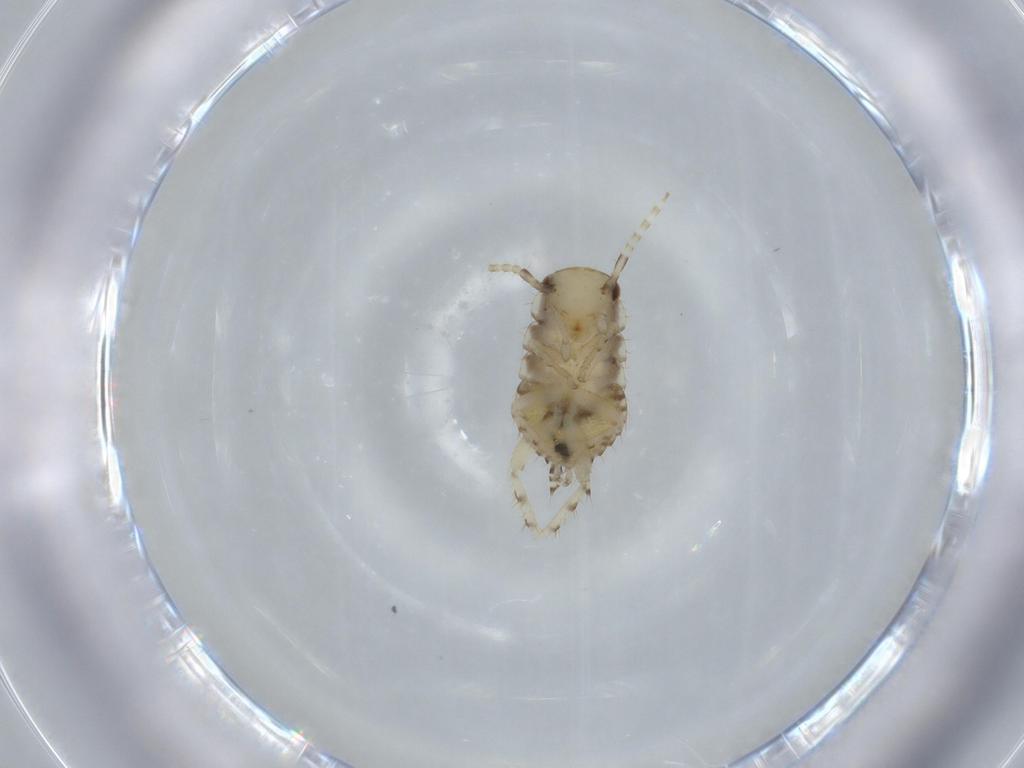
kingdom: Animalia
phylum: Arthropoda
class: Insecta
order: Blattodea
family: Ectobiidae
